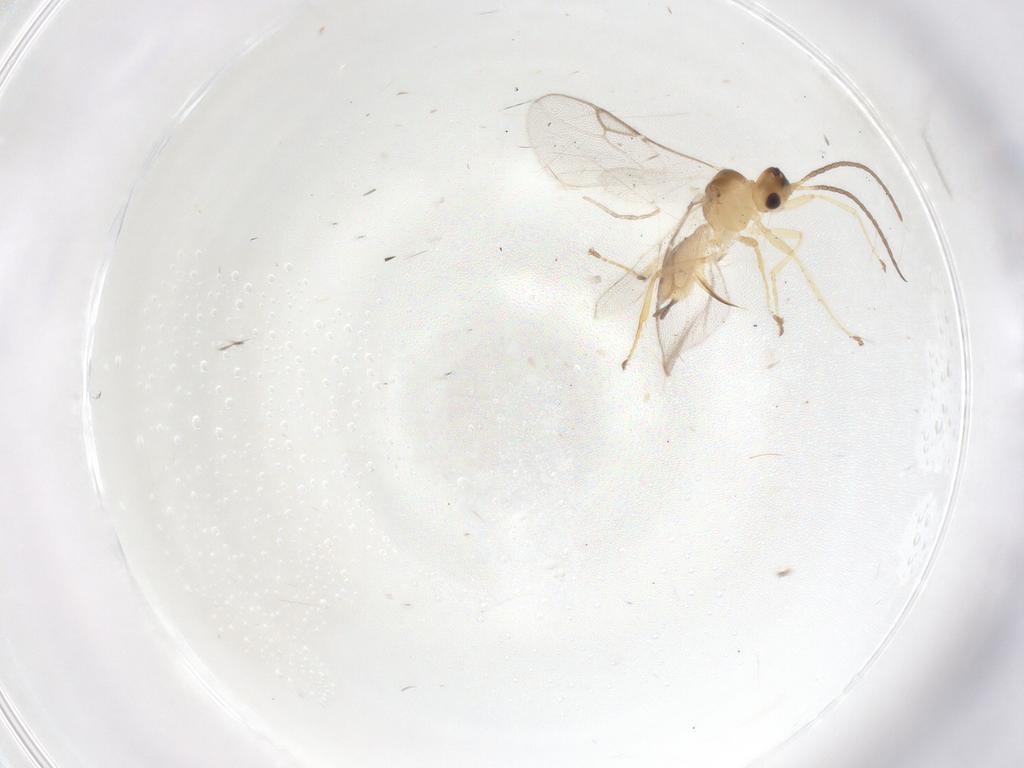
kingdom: Animalia
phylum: Arthropoda
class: Insecta
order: Hymenoptera
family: Braconidae
